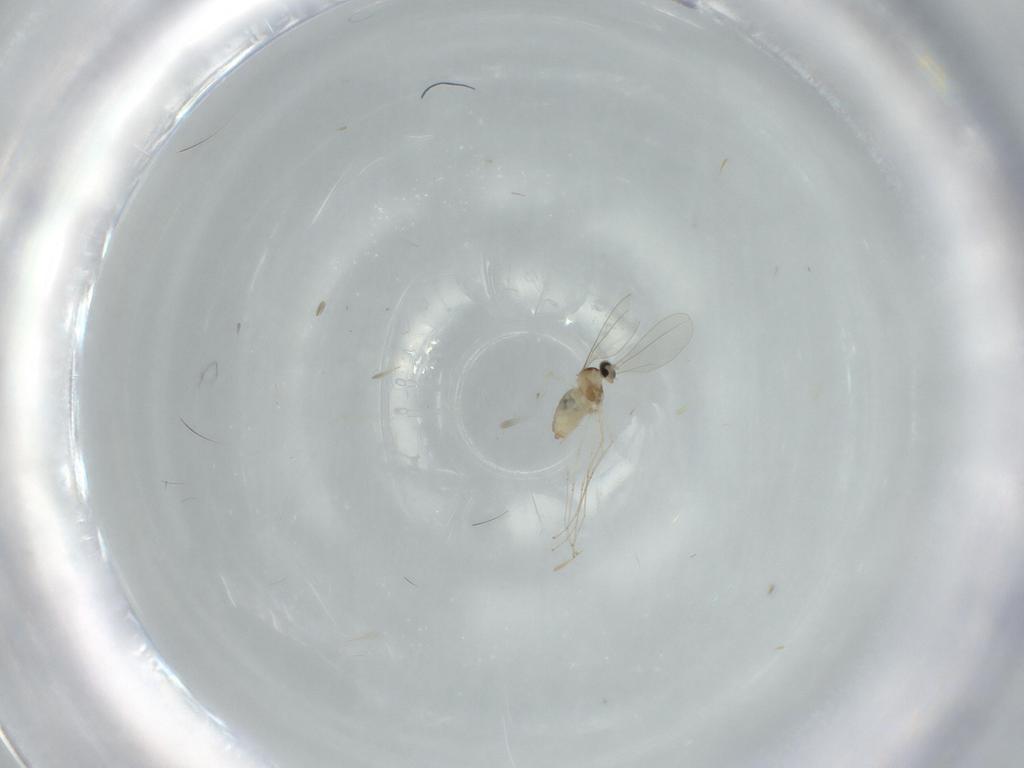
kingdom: Animalia
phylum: Arthropoda
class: Insecta
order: Diptera
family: Cecidomyiidae
